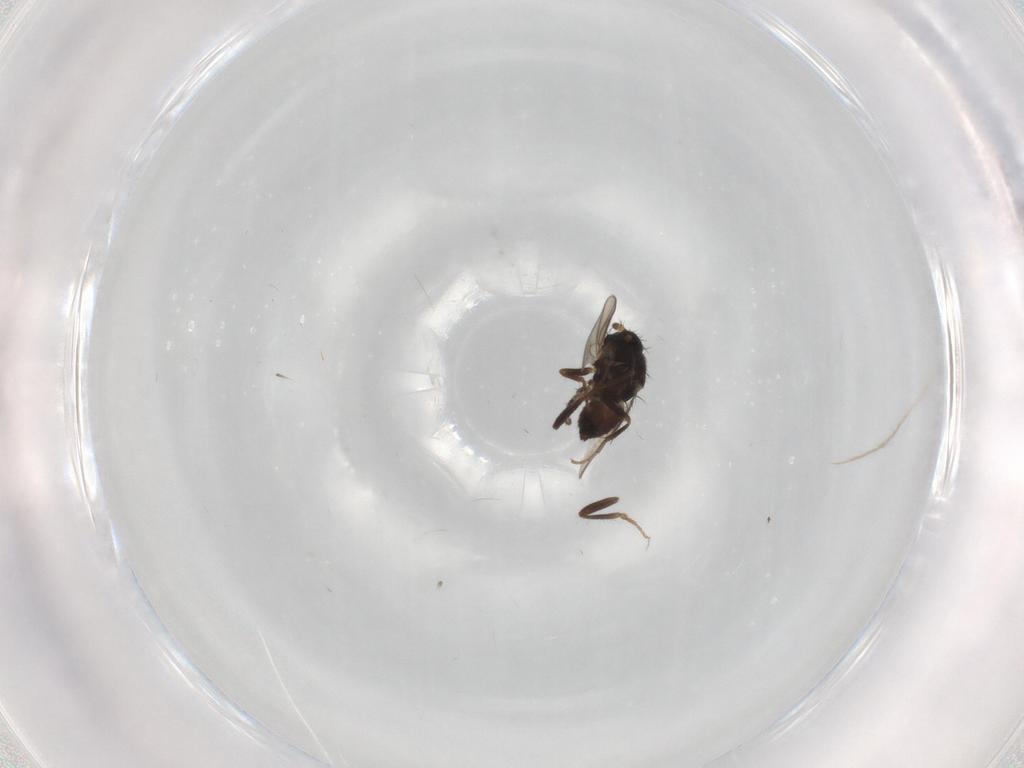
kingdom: Animalia
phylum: Arthropoda
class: Insecta
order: Diptera
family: Sphaeroceridae
